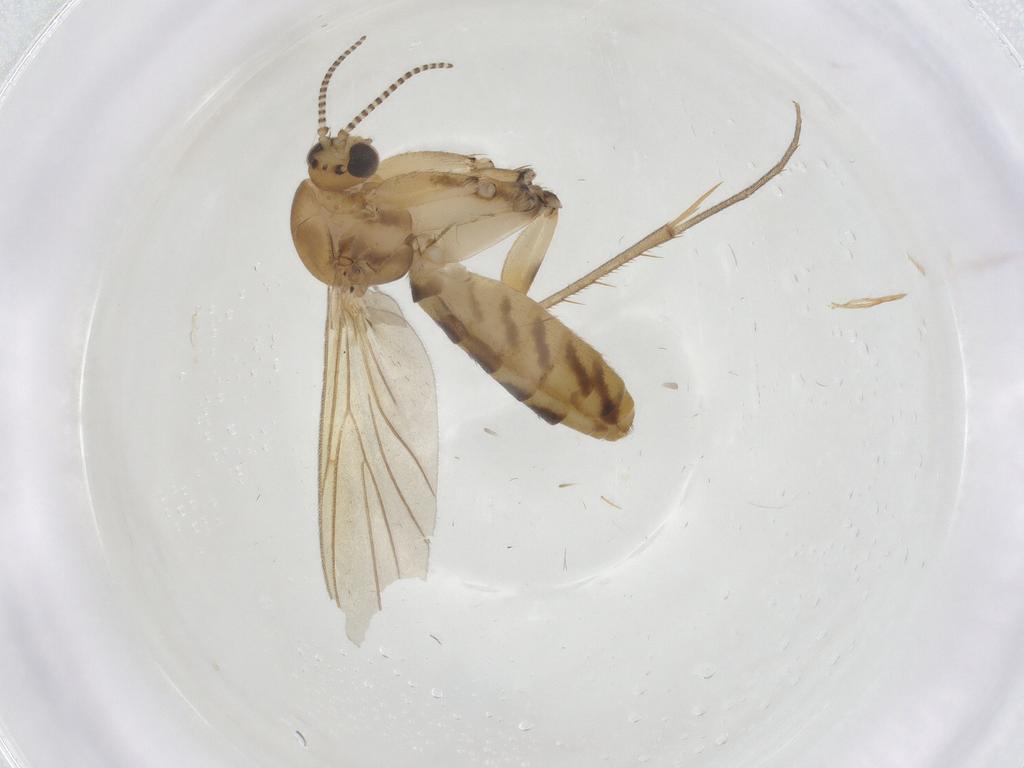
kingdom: Animalia
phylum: Arthropoda
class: Insecta
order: Diptera
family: Mycetophilidae
